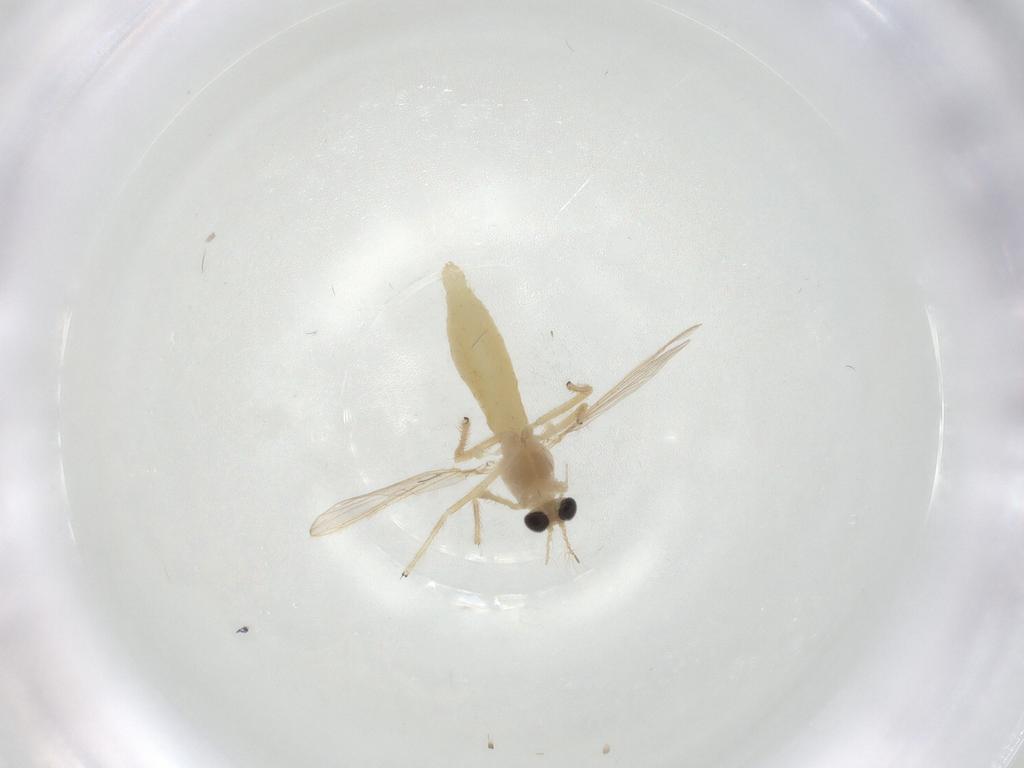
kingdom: Animalia
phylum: Arthropoda
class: Insecta
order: Diptera
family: Chironomidae
